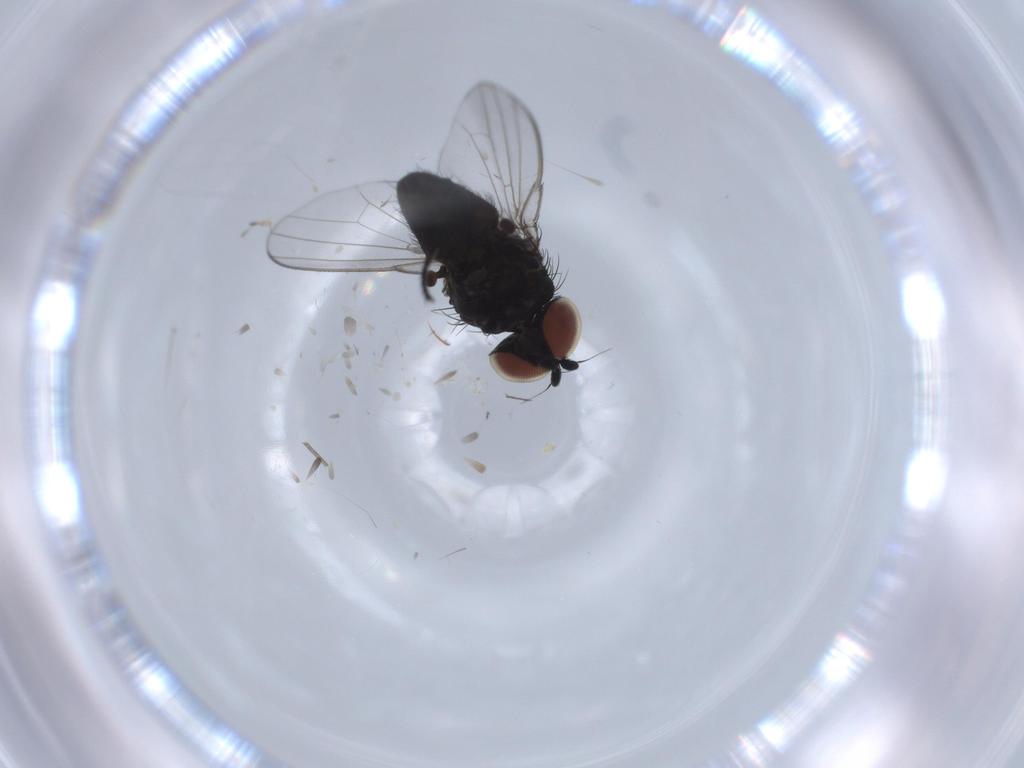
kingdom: Animalia
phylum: Arthropoda
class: Insecta
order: Diptera
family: Milichiidae
